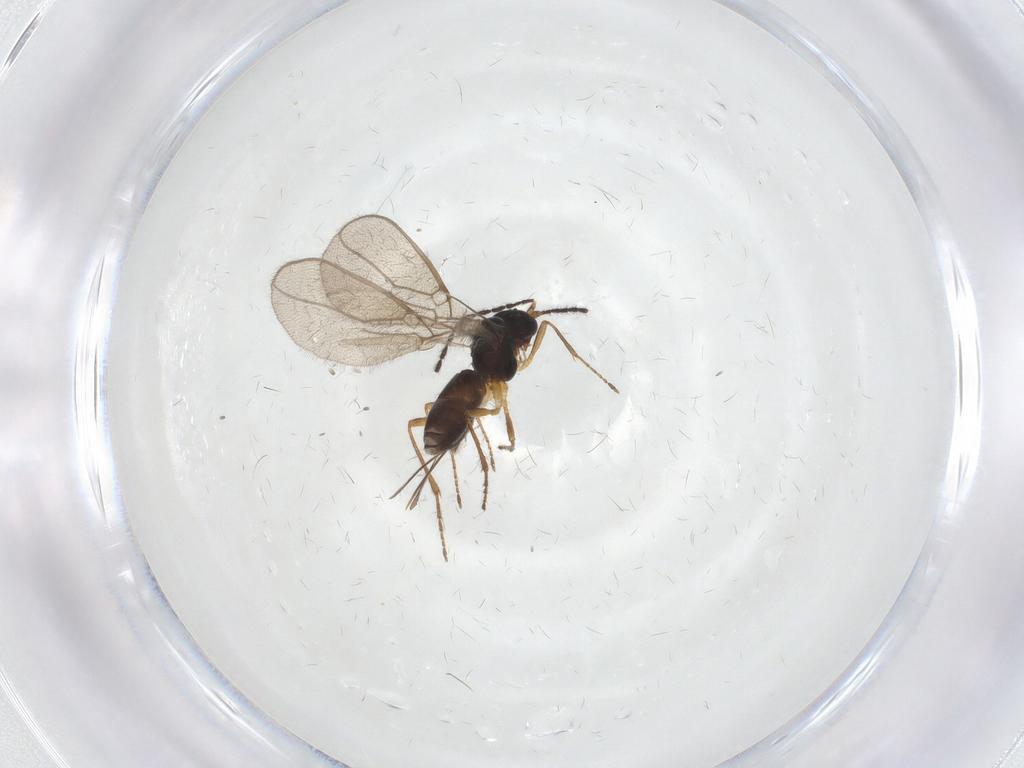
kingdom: Animalia
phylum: Arthropoda
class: Insecta
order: Hymenoptera
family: Braconidae
